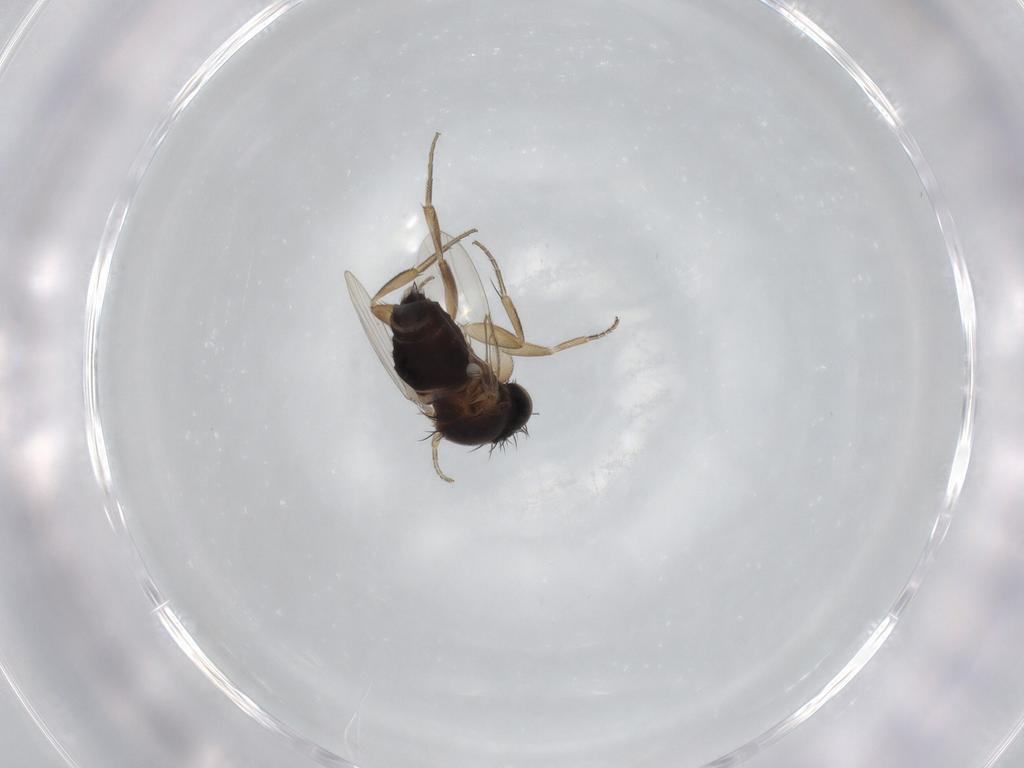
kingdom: Animalia
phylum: Arthropoda
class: Insecta
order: Diptera
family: Phoridae
